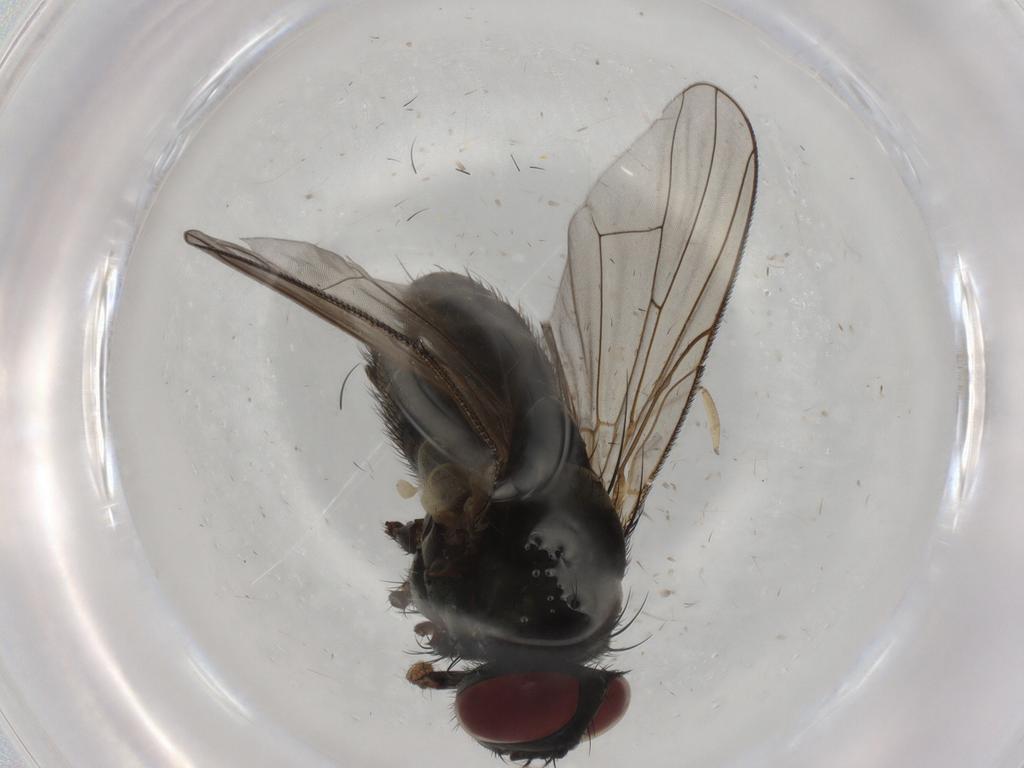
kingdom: Animalia
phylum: Arthropoda
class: Insecta
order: Diptera
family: Muscidae
